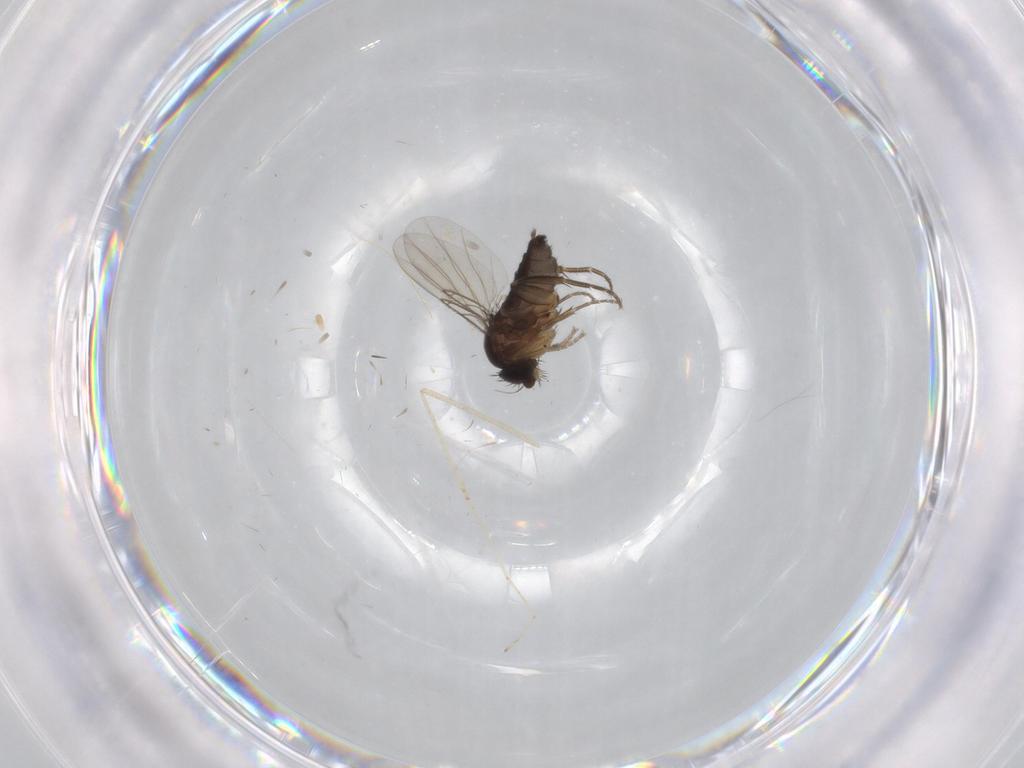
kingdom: Animalia
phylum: Arthropoda
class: Insecta
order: Diptera
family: Phoridae
